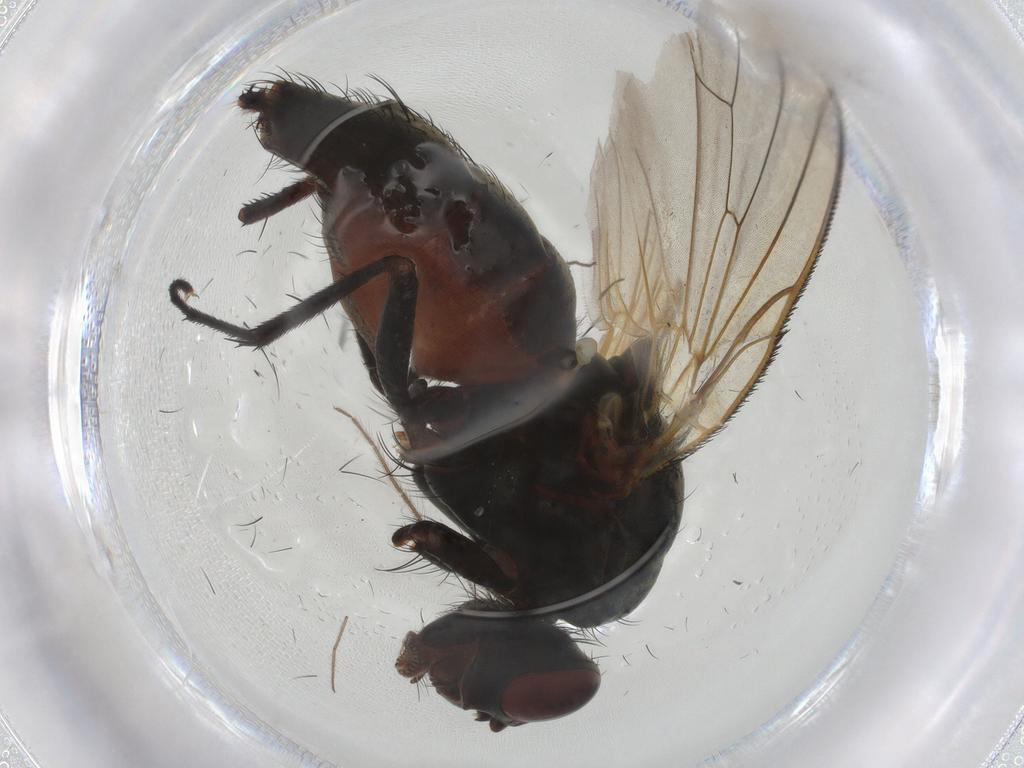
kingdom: Animalia
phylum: Arthropoda
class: Insecta
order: Diptera
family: Anthomyiidae
